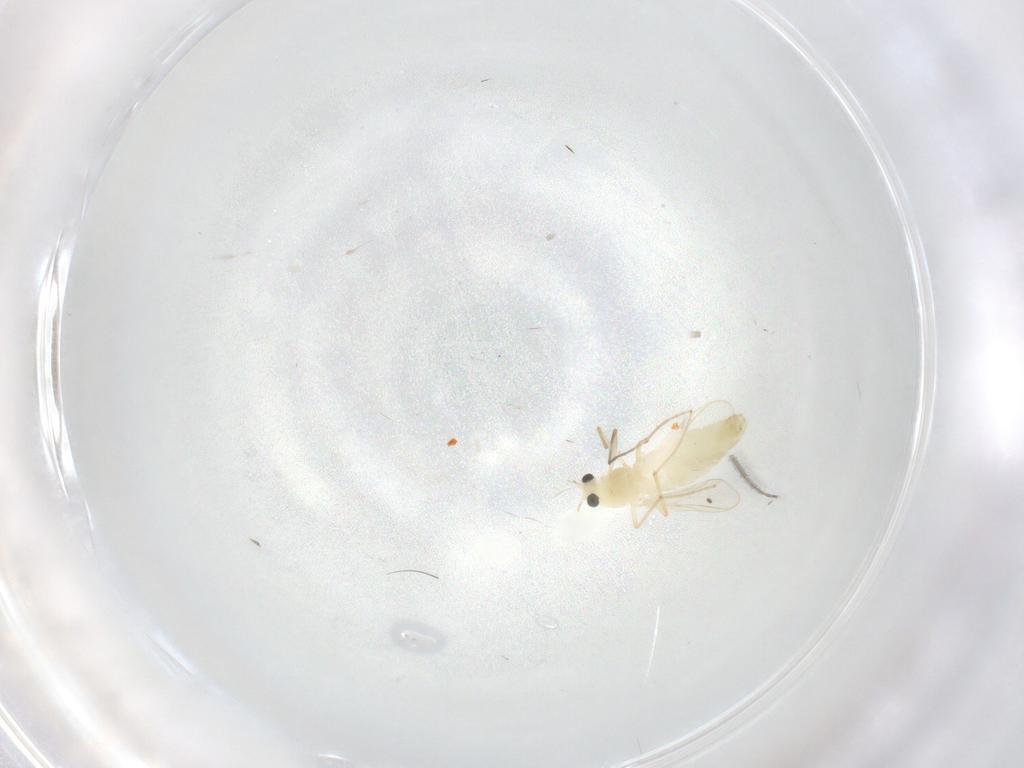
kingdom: Animalia
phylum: Arthropoda
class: Insecta
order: Diptera
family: Chironomidae
